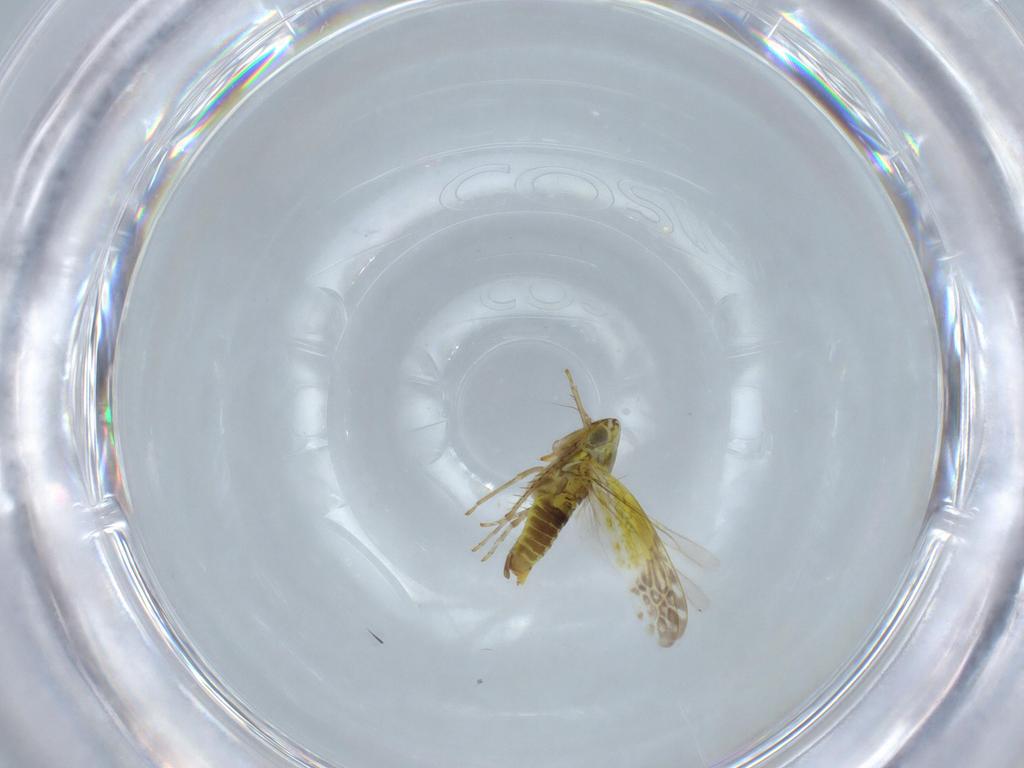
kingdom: Animalia
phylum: Arthropoda
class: Insecta
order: Hemiptera
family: Cicadellidae
